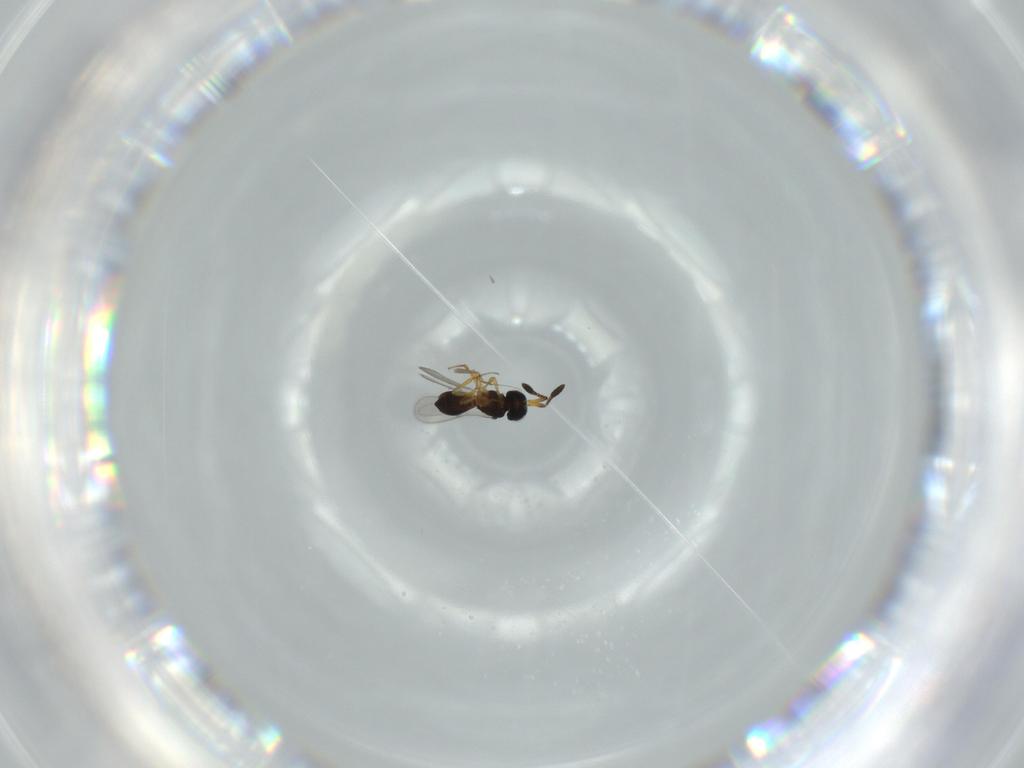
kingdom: Animalia
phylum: Arthropoda
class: Insecta
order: Hymenoptera
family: Scelionidae
